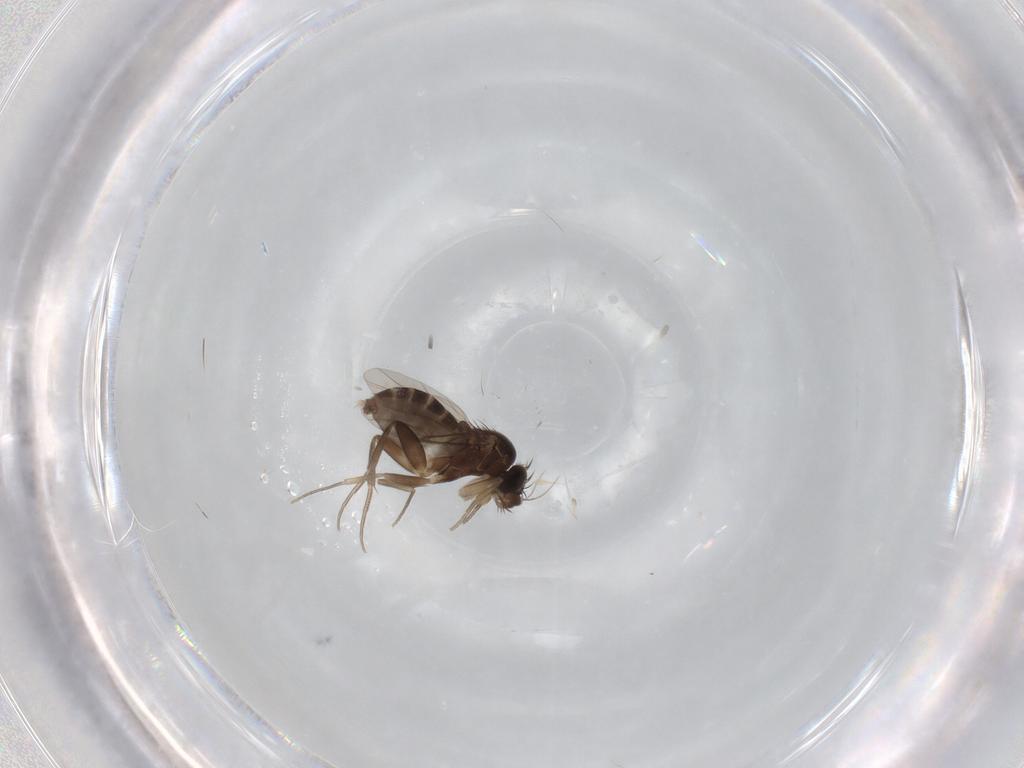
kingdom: Animalia
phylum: Arthropoda
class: Insecta
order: Diptera
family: Phoridae
